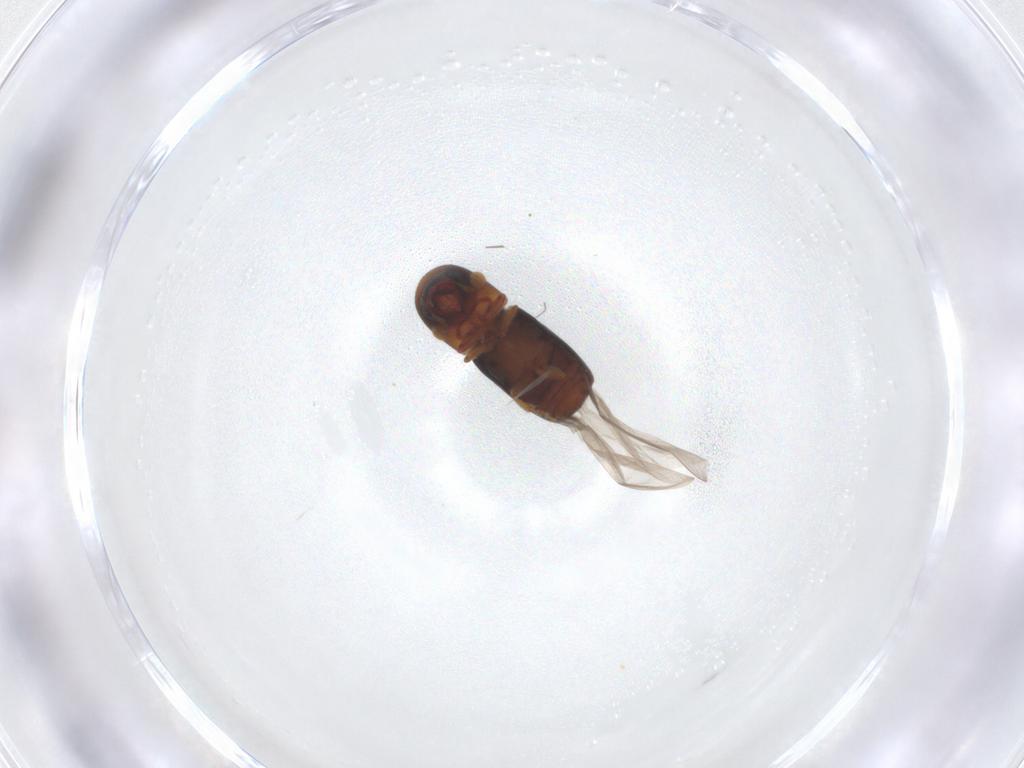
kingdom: Animalia
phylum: Arthropoda
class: Insecta
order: Coleoptera
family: Curculionidae
